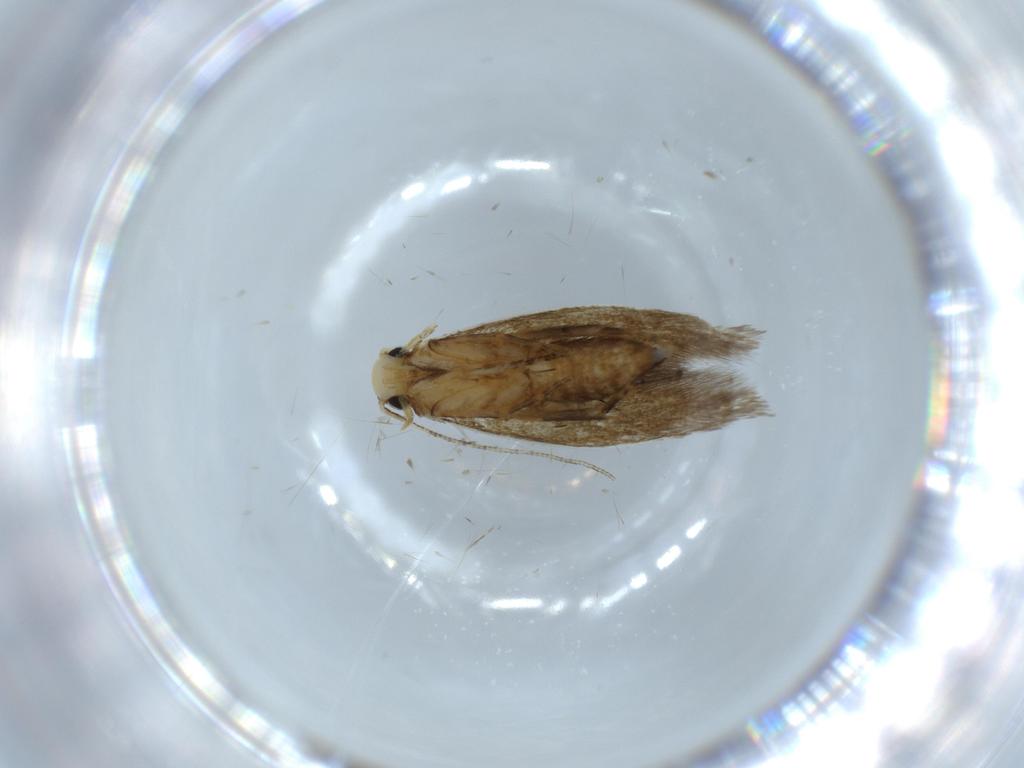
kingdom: Animalia
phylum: Arthropoda
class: Insecta
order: Lepidoptera
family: Tineidae
